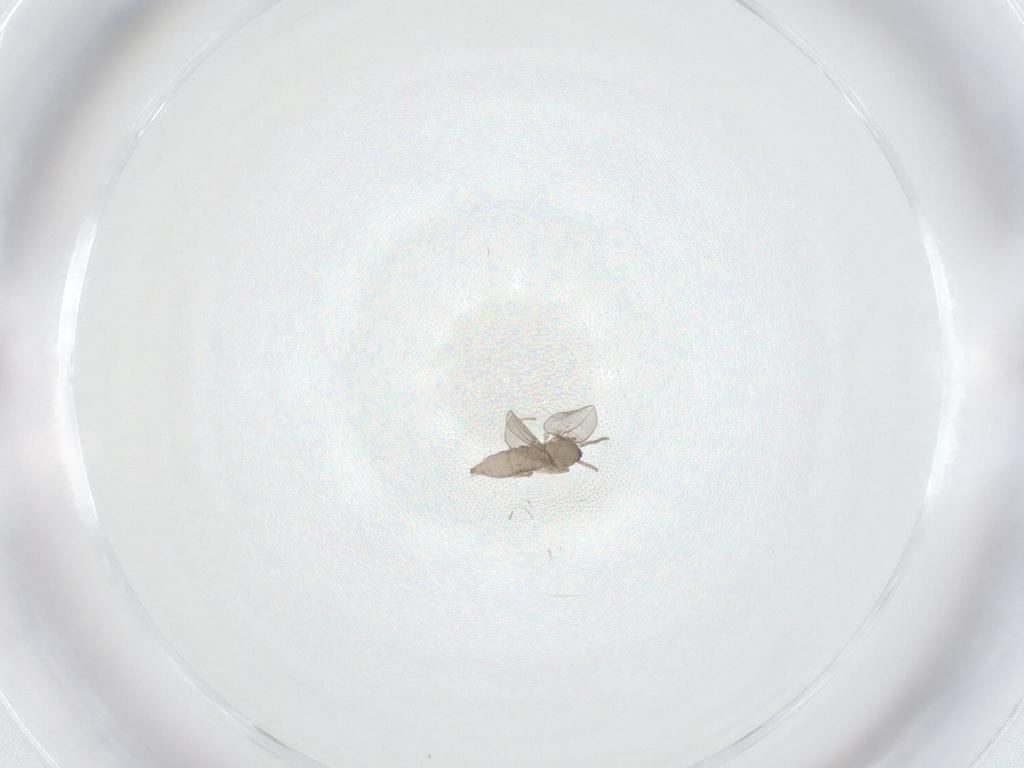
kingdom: Animalia
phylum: Arthropoda
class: Insecta
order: Diptera
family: Cecidomyiidae
